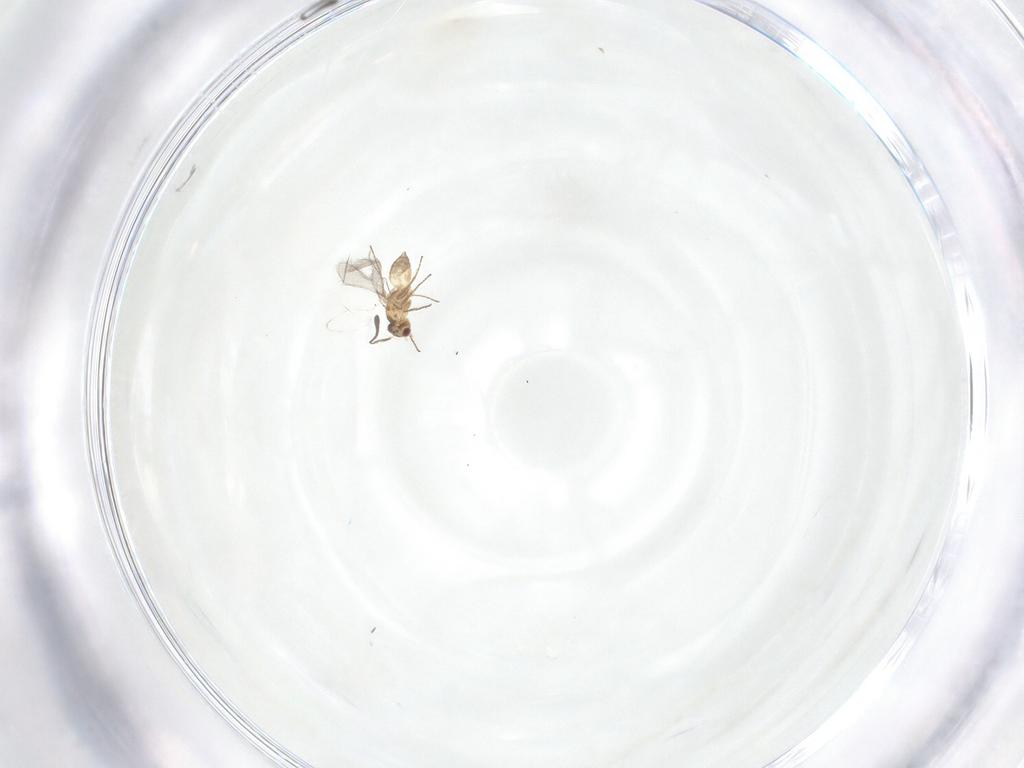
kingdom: Animalia
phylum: Arthropoda
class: Insecta
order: Hymenoptera
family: Mymaridae
